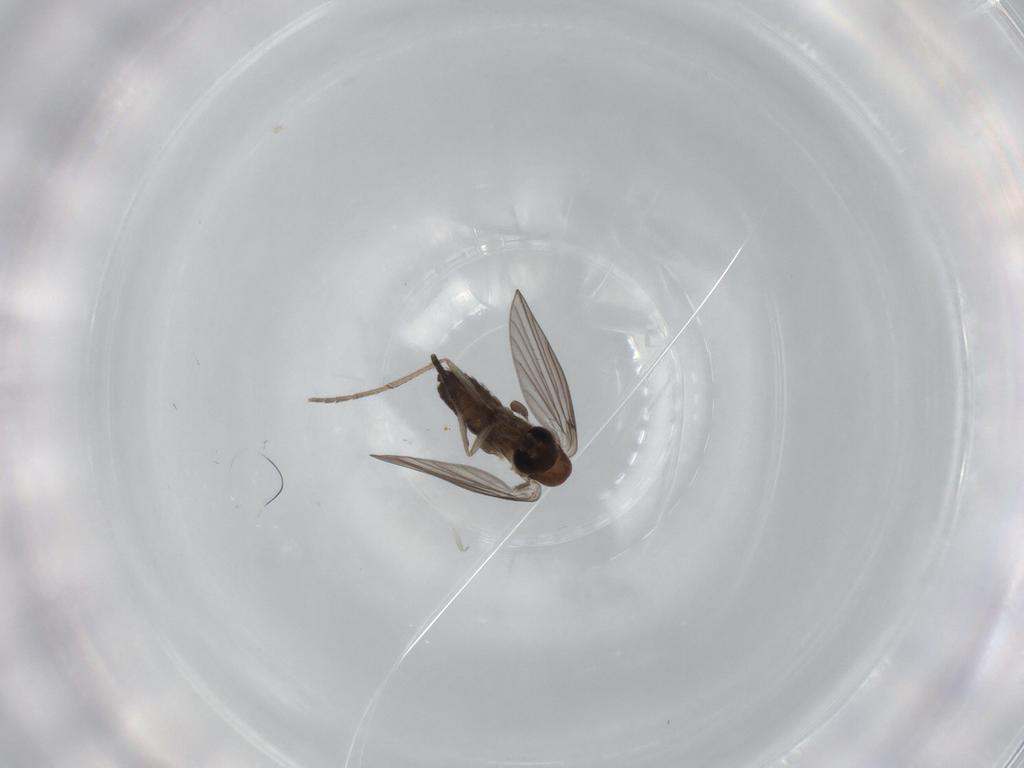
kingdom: Animalia
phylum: Arthropoda
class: Insecta
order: Diptera
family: Psychodidae
